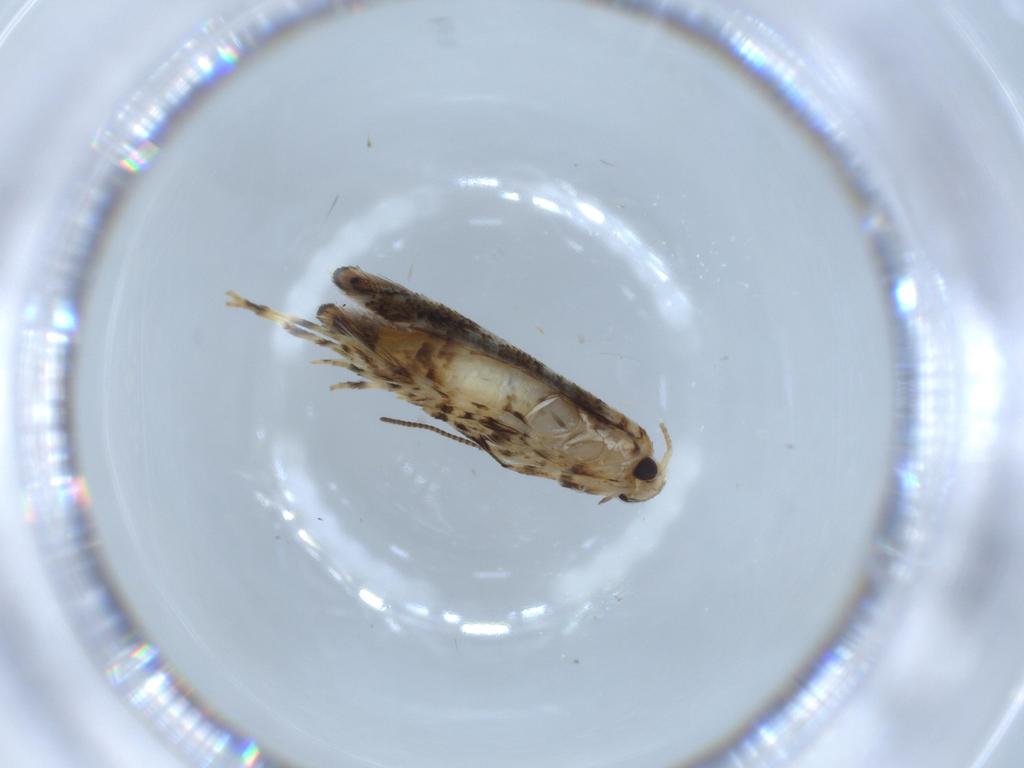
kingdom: Animalia
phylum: Arthropoda
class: Insecta
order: Lepidoptera
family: Gracillariidae
